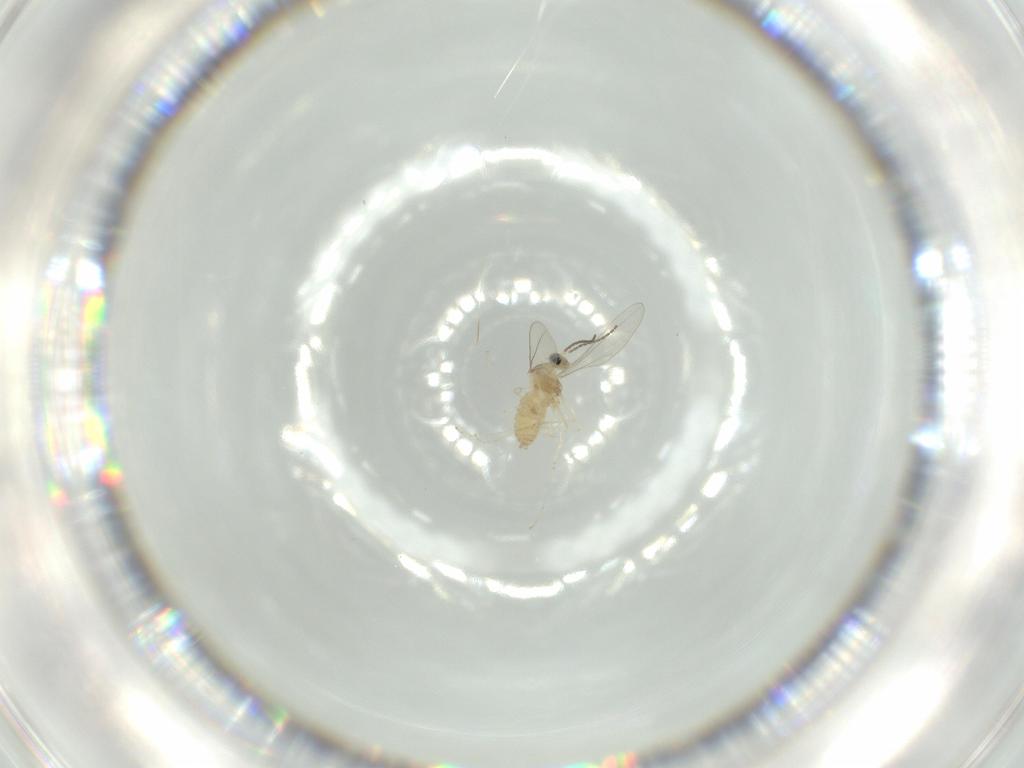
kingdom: Animalia
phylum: Arthropoda
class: Insecta
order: Diptera
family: Cecidomyiidae
